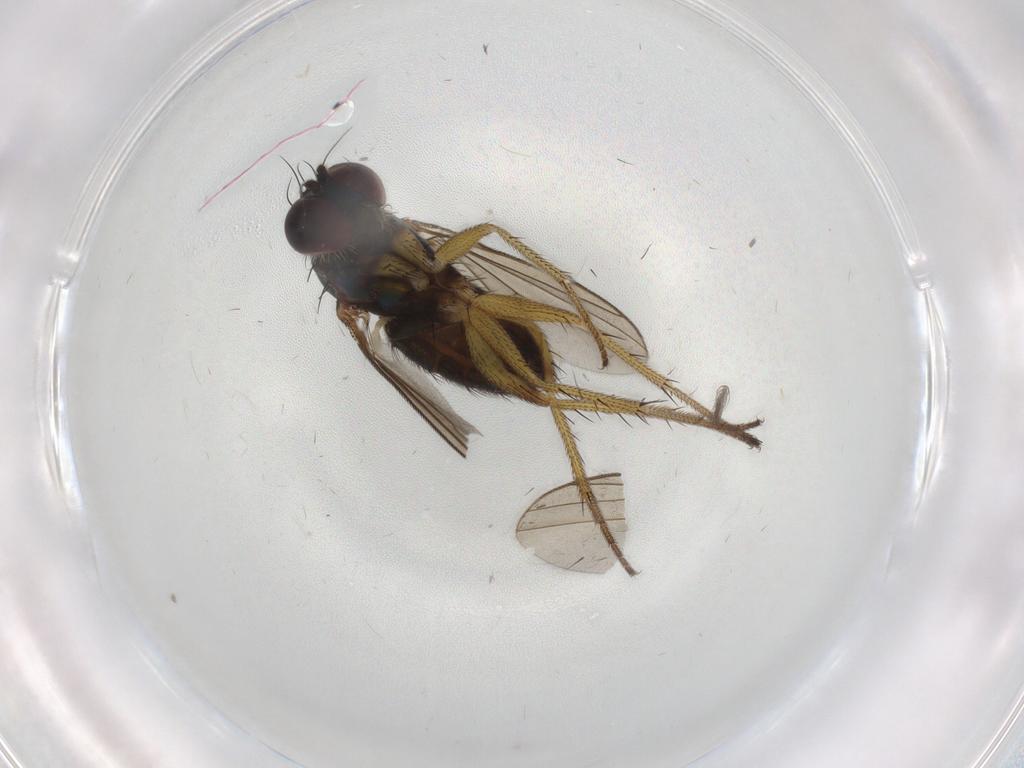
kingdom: Animalia
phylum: Arthropoda
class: Insecta
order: Diptera
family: Dolichopodidae
